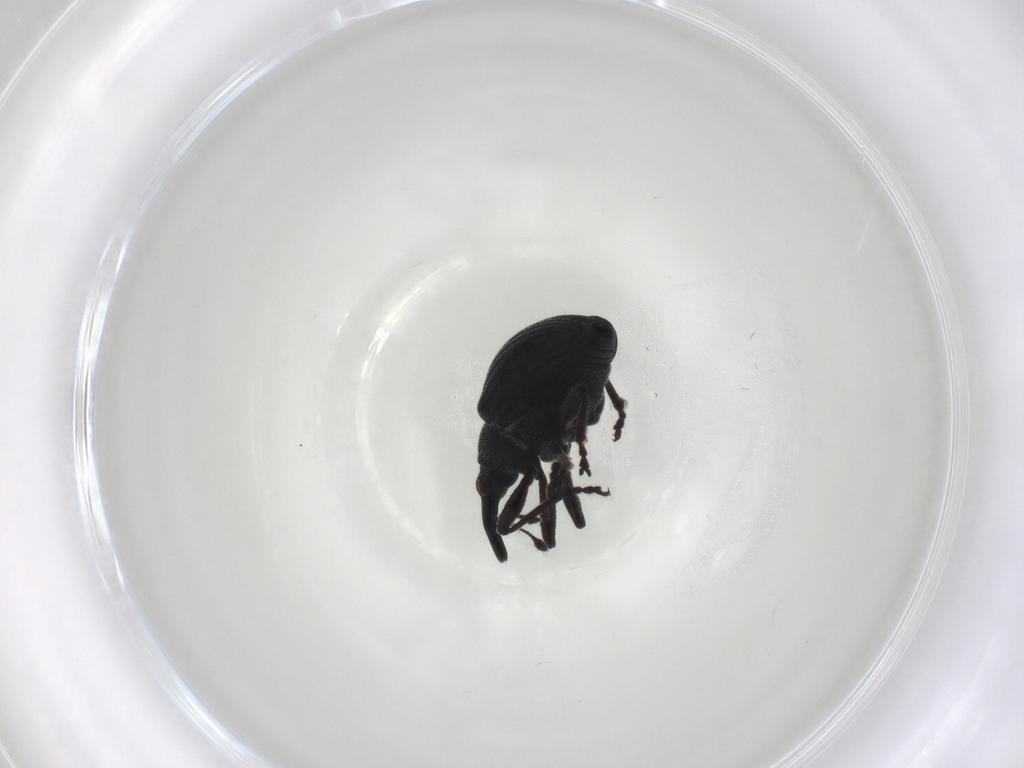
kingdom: Animalia
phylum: Arthropoda
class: Insecta
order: Coleoptera
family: Brentidae
